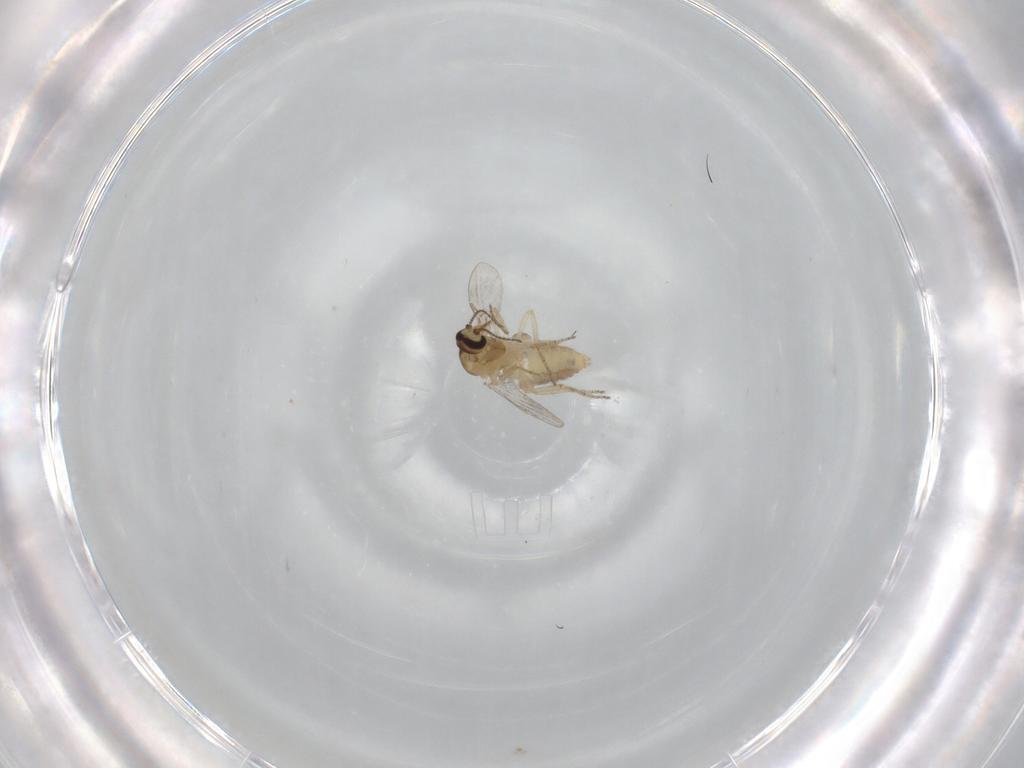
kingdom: Animalia
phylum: Arthropoda
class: Insecta
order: Diptera
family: Ceratopogonidae
